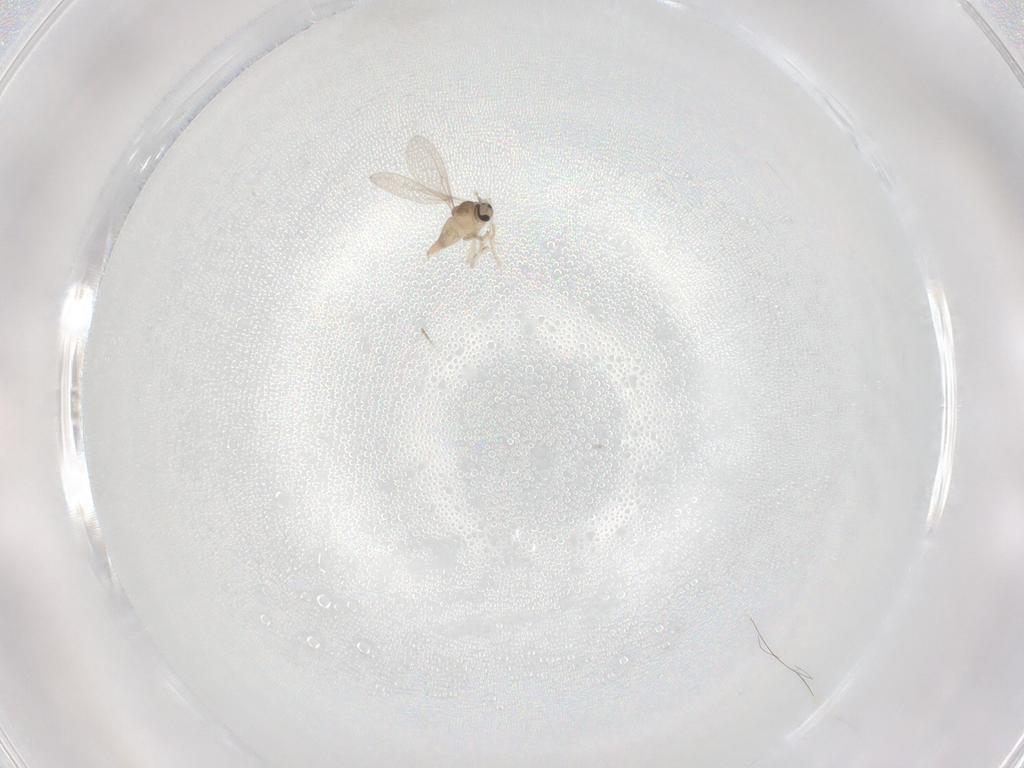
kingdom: Animalia
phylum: Arthropoda
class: Insecta
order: Diptera
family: Cecidomyiidae
